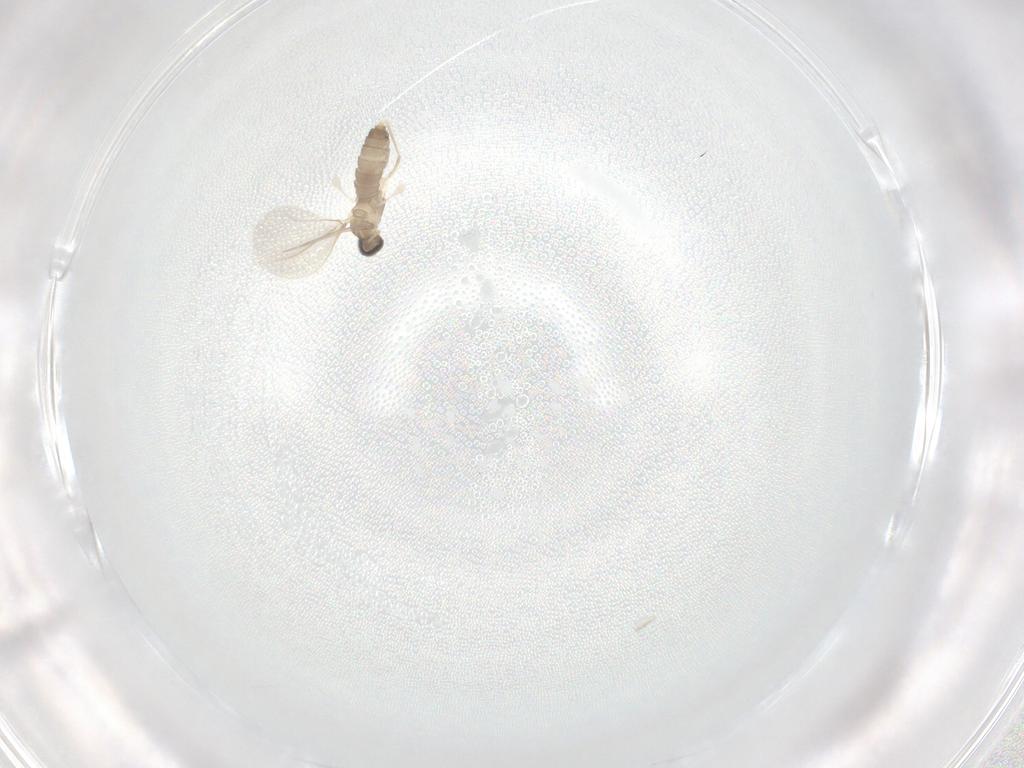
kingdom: Animalia
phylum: Arthropoda
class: Insecta
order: Diptera
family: Cecidomyiidae
